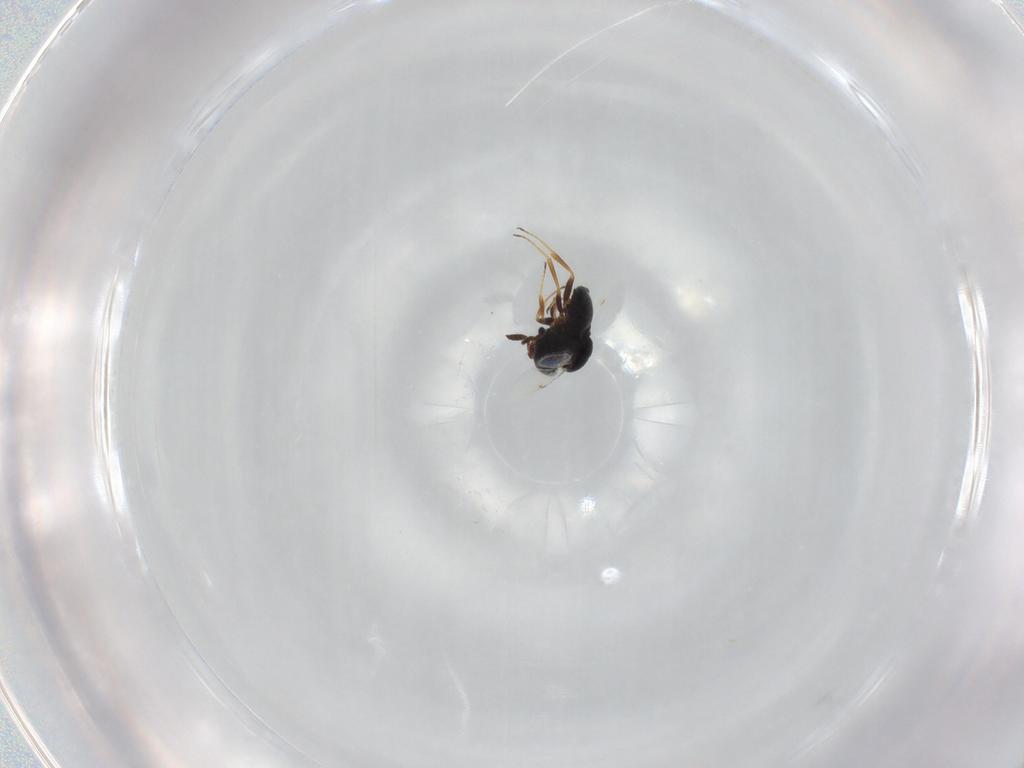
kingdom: Animalia
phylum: Arthropoda
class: Insecta
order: Hymenoptera
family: Scelionidae
